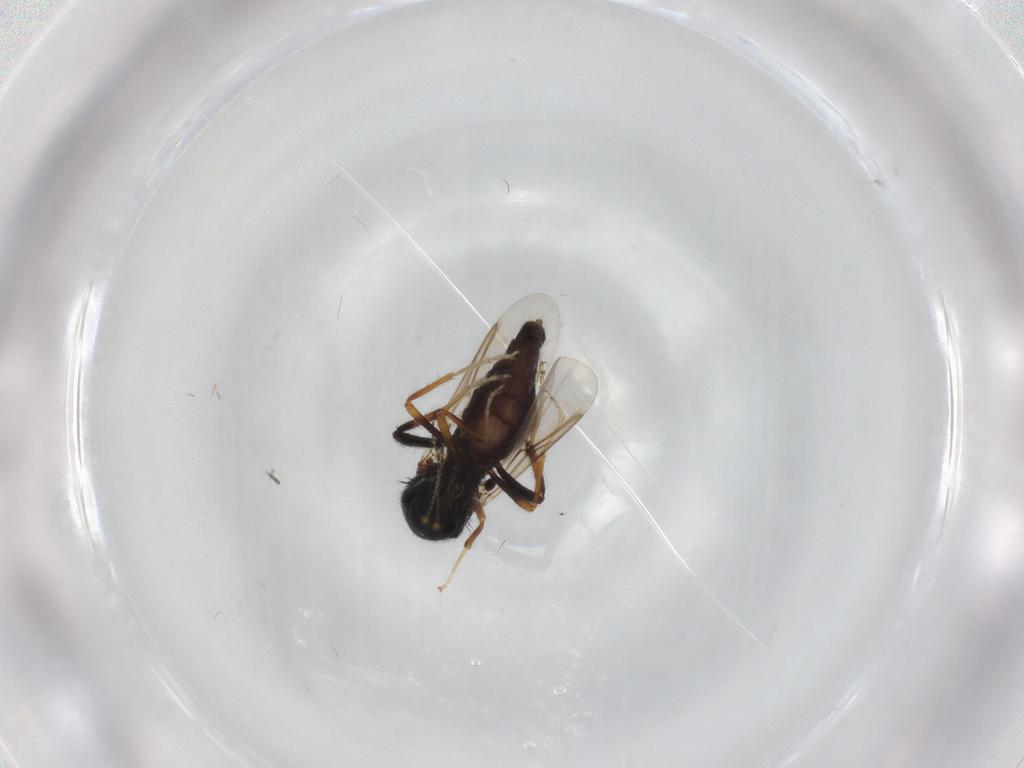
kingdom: Animalia
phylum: Arthropoda
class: Insecta
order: Diptera
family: Ceratopogonidae
